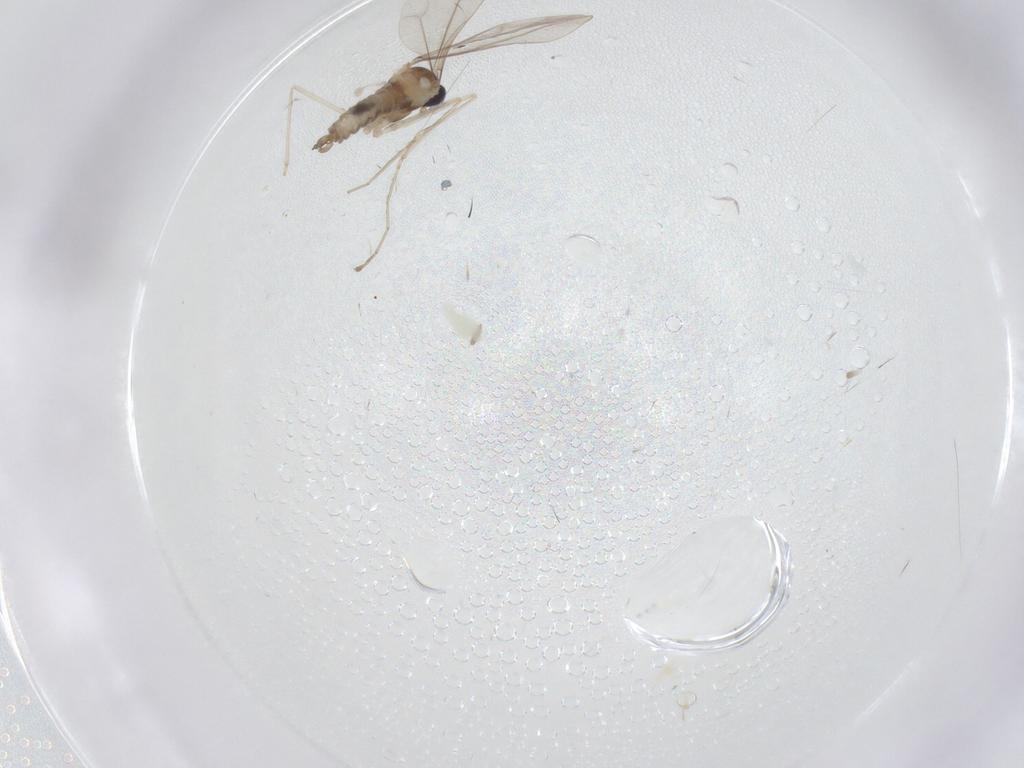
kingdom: Animalia
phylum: Arthropoda
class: Insecta
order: Diptera
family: Cecidomyiidae
